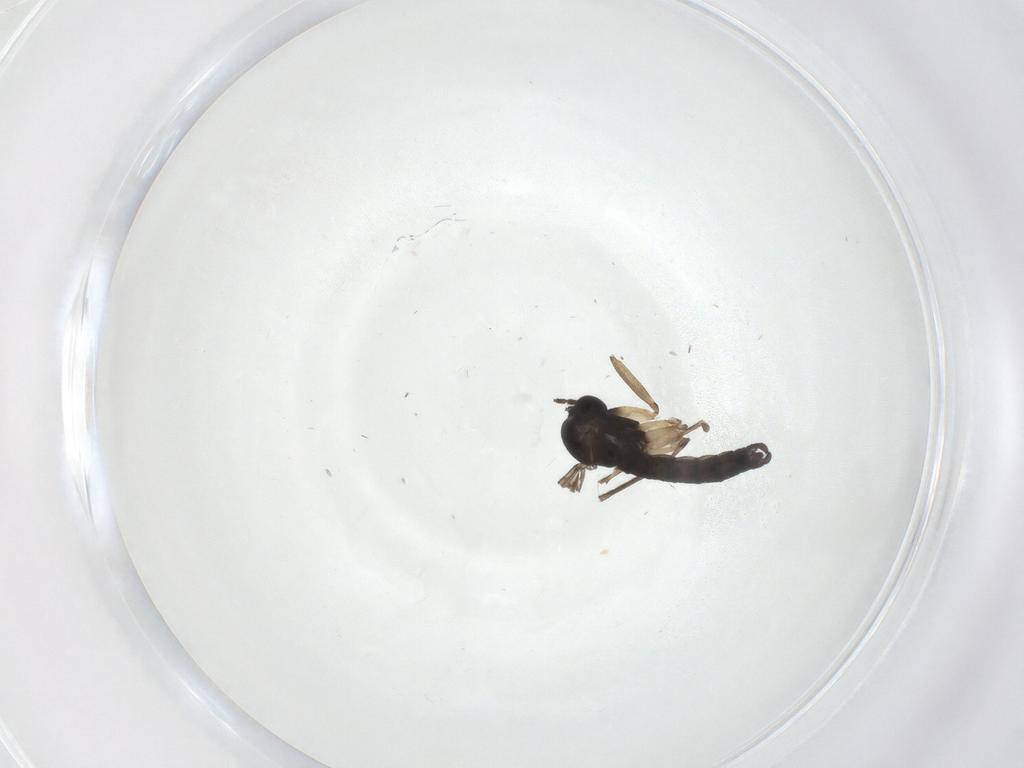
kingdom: Animalia
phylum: Arthropoda
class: Insecta
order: Diptera
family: Sciaridae
